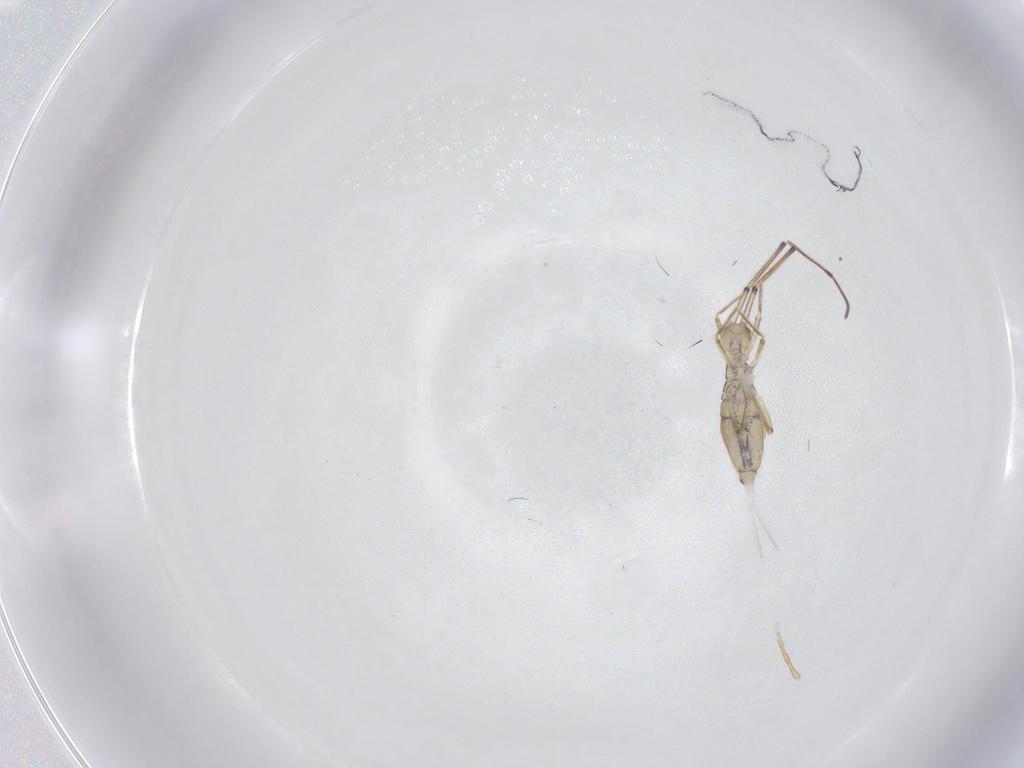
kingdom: Animalia
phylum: Arthropoda
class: Collembola
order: Entomobryomorpha
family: Paronellidae
